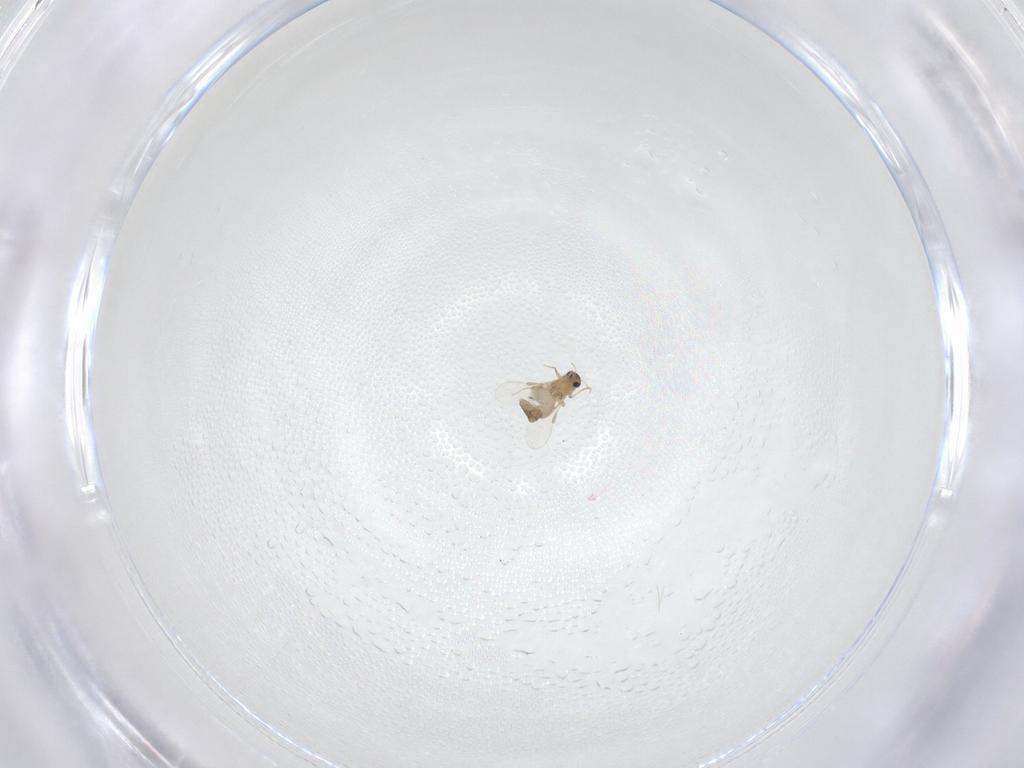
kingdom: Animalia
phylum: Arthropoda
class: Insecta
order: Diptera
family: Chironomidae
